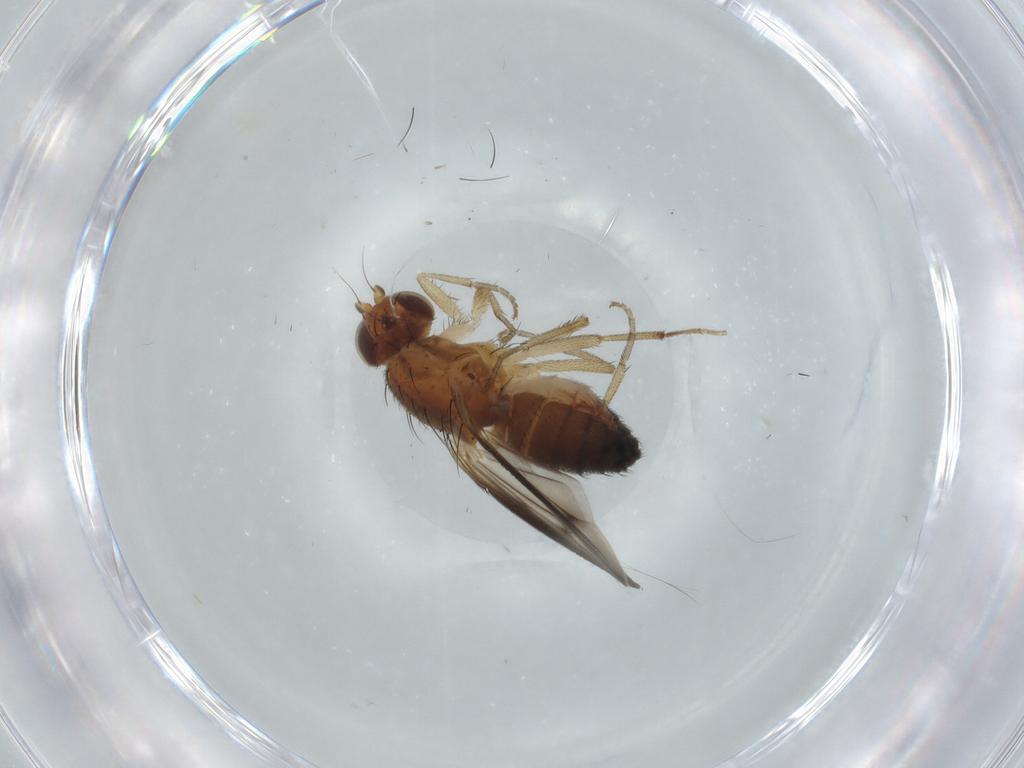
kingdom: Animalia
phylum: Arthropoda
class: Insecta
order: Diptera
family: Heleomyzidae
